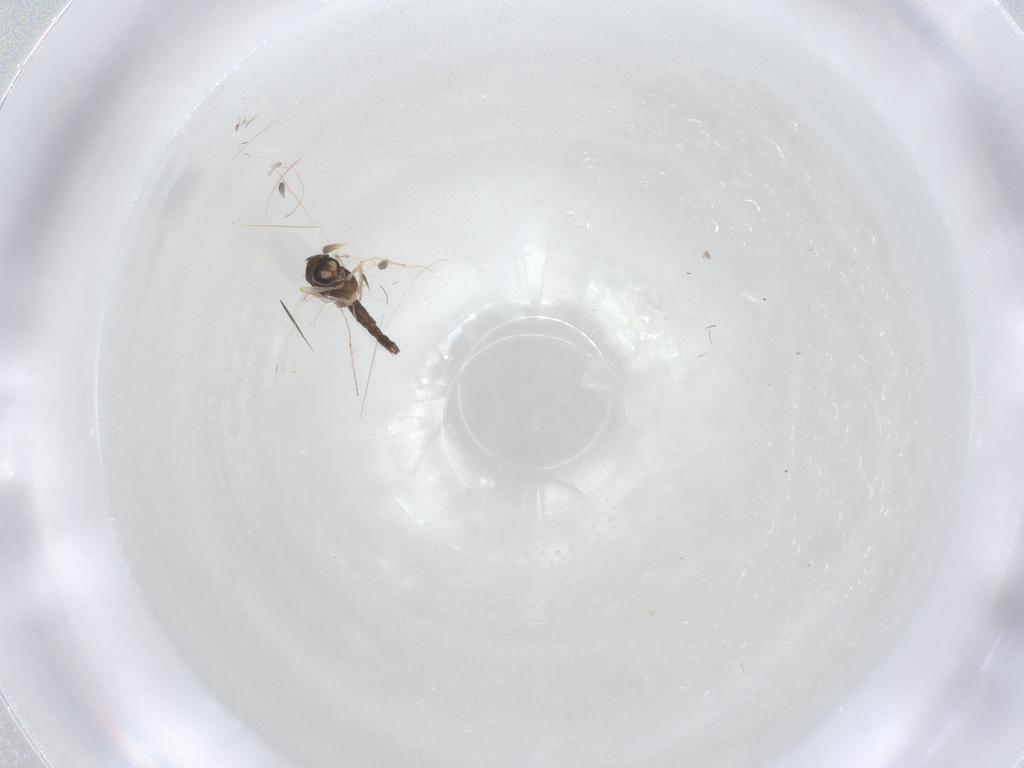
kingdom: Animalia
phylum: Arthropoda
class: Insecta
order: Diptera
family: Chironomidae
